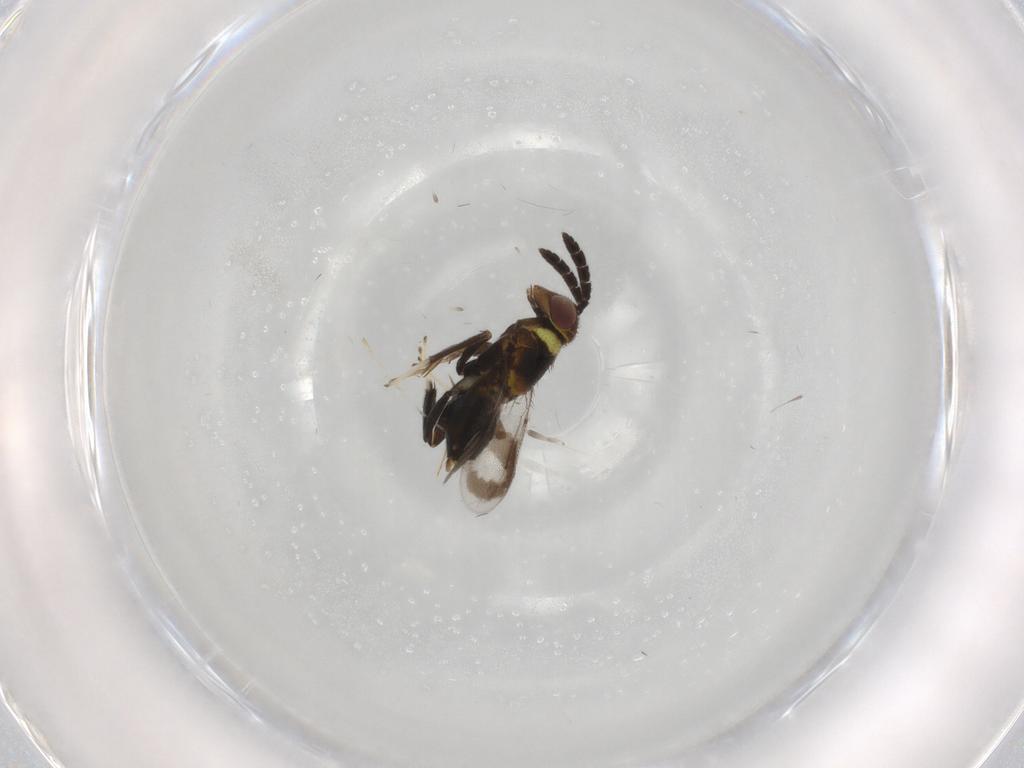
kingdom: Animalia
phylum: Arthropoda
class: Insecta
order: Hymenoptera
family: Aphelinidae
